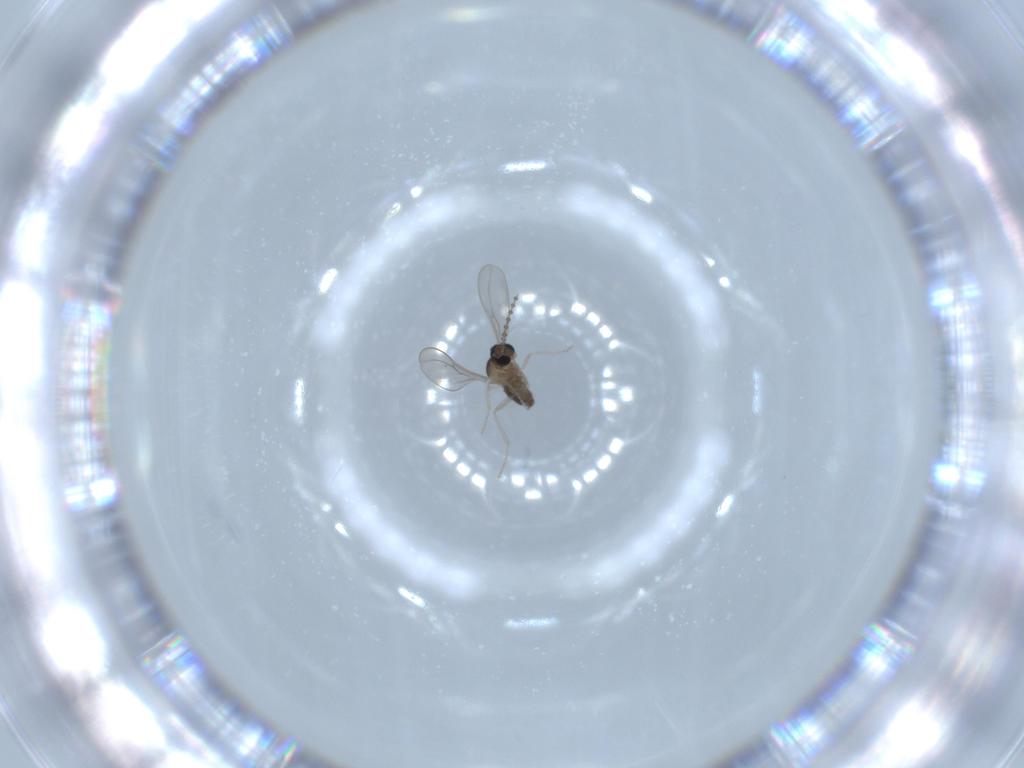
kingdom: Animalia
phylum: Arthropoda
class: Insecta
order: Diptera
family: Cecidomyiidae
